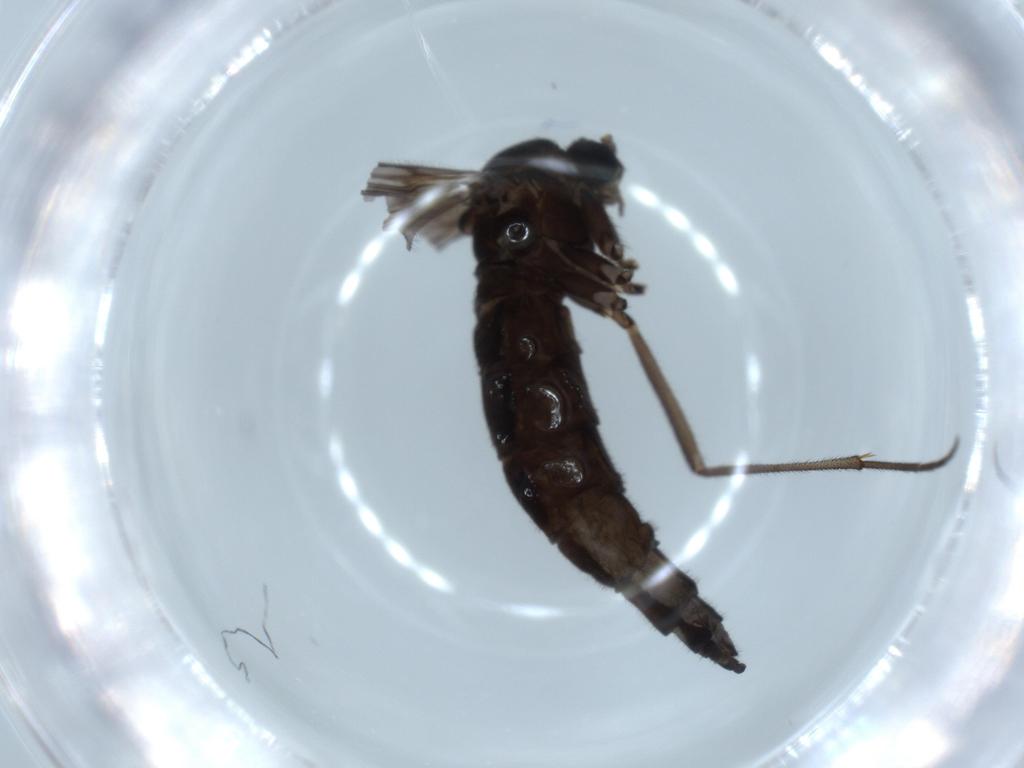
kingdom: Animalia
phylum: Arthropoda
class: Insecta
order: Diptera
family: Sciaridae
